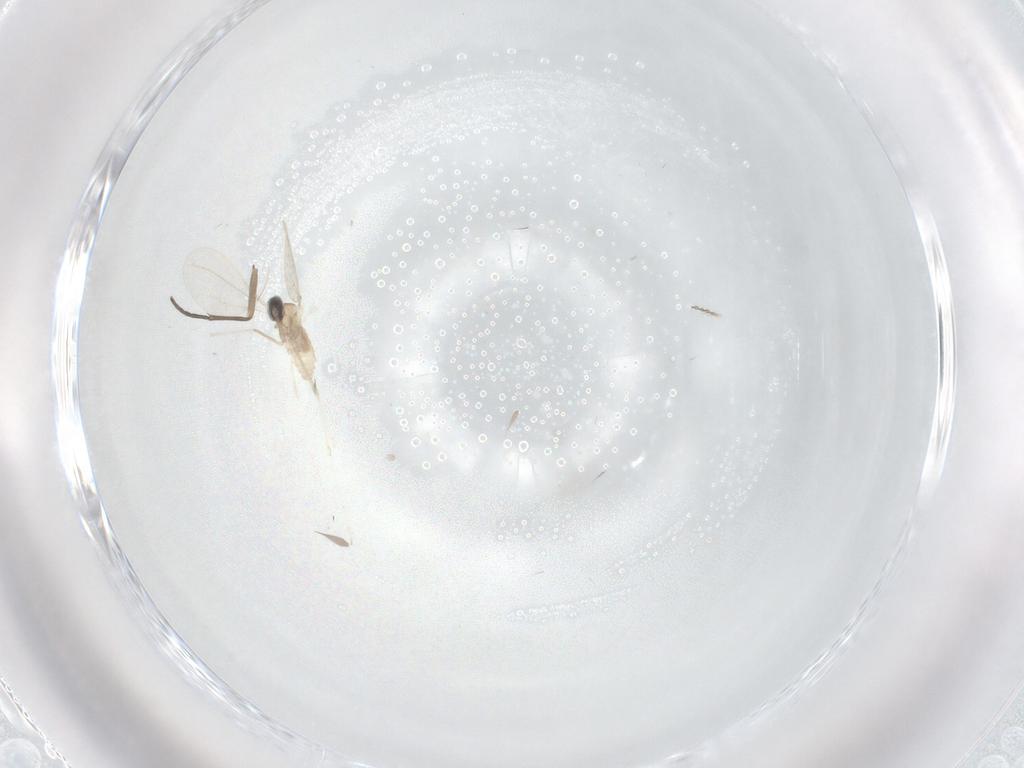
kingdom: Animalia
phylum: Arthropoda
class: Insecta
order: Diptera
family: Cecidomyiidae
